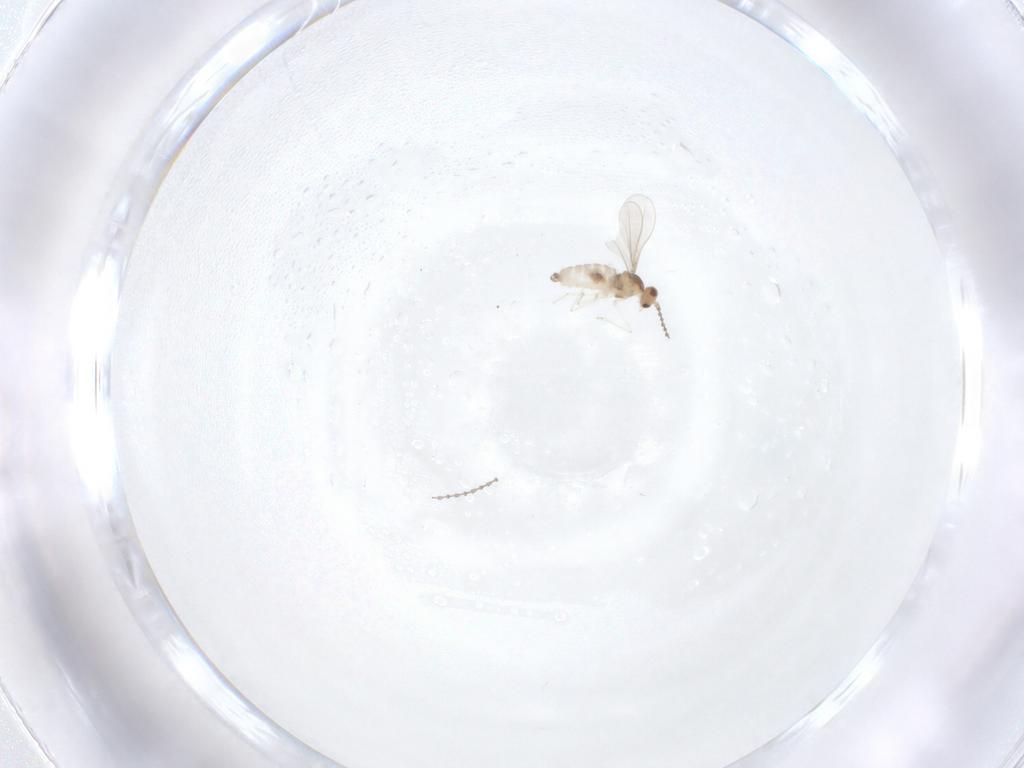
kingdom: Animalia
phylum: Arthropoda
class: Insecta
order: Diptera
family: Cecidomyiidae
